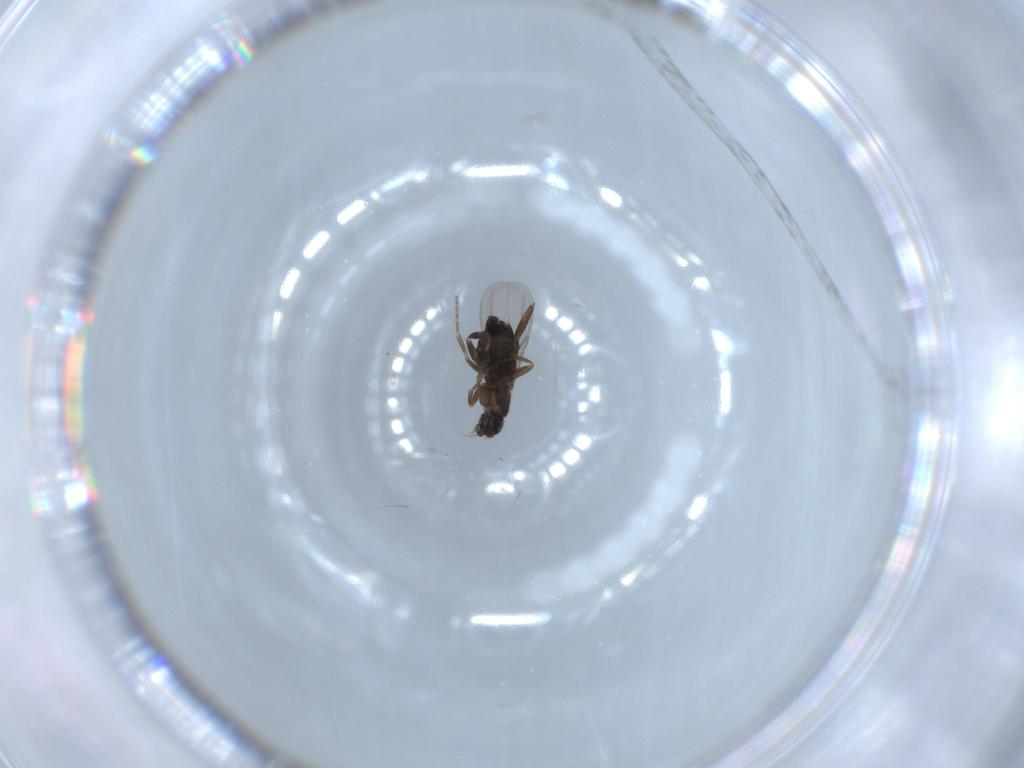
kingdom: Animalia
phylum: Arthropoda
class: Insecta
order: Diptera
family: Phoridae
